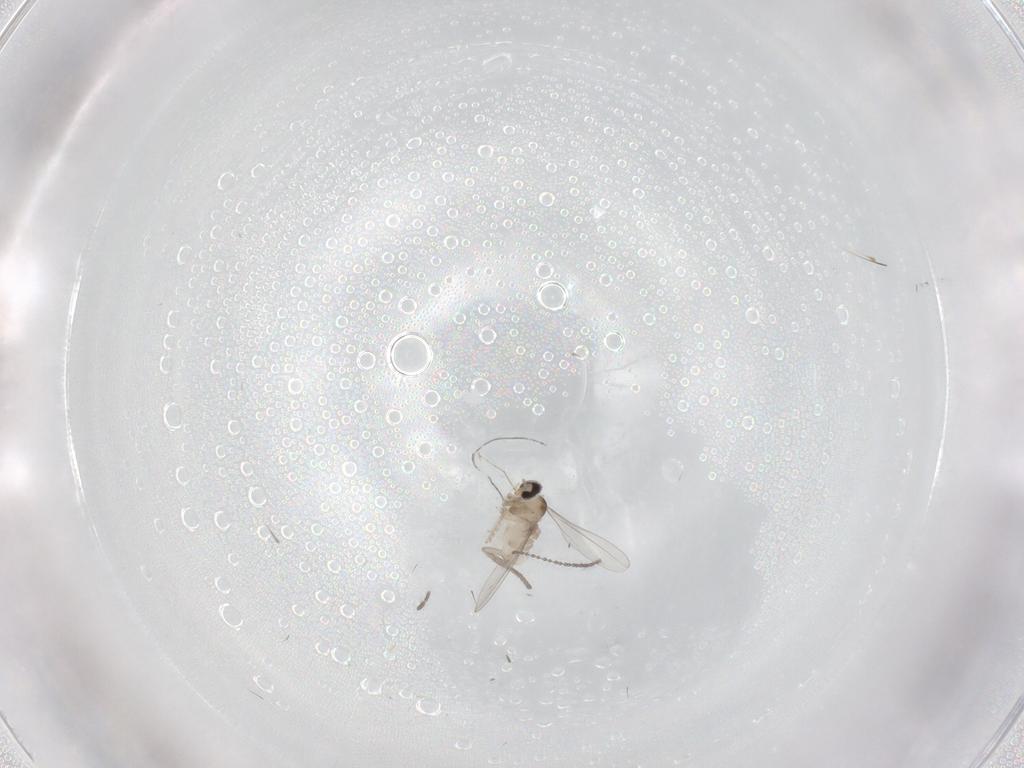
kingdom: Animalia
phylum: Arthropoda
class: Insecta
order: Diptera
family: Cecidomyiidae
